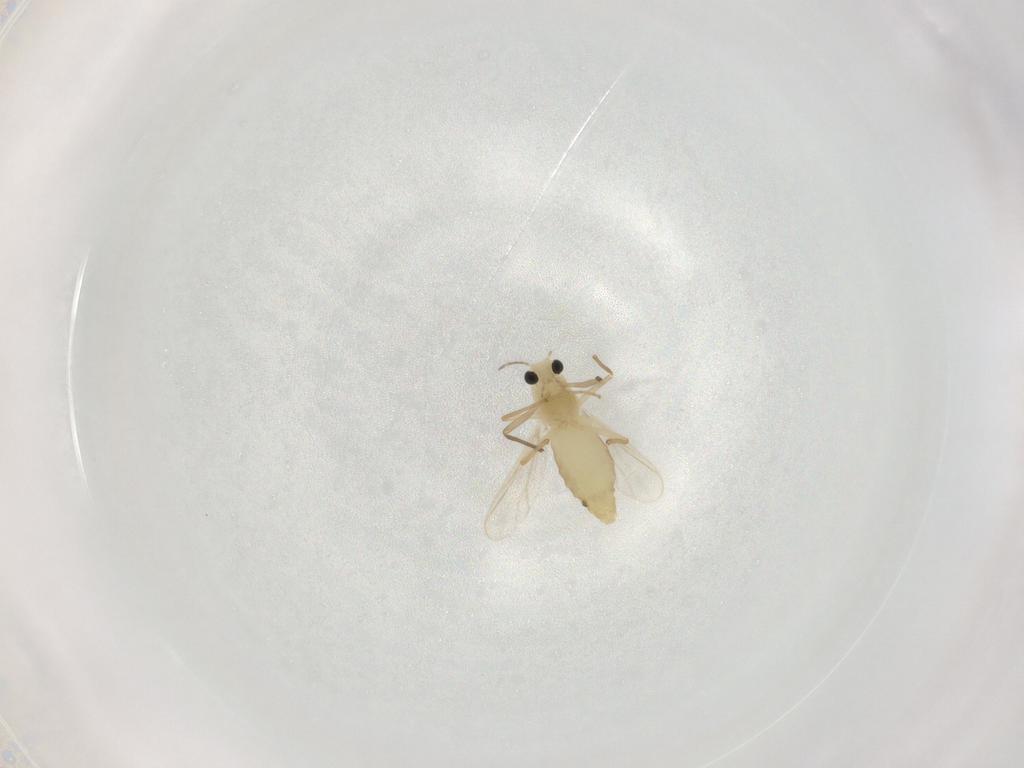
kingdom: Animalia
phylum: Arthropoda
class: Insecta
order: Diptera
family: Chironomidae
